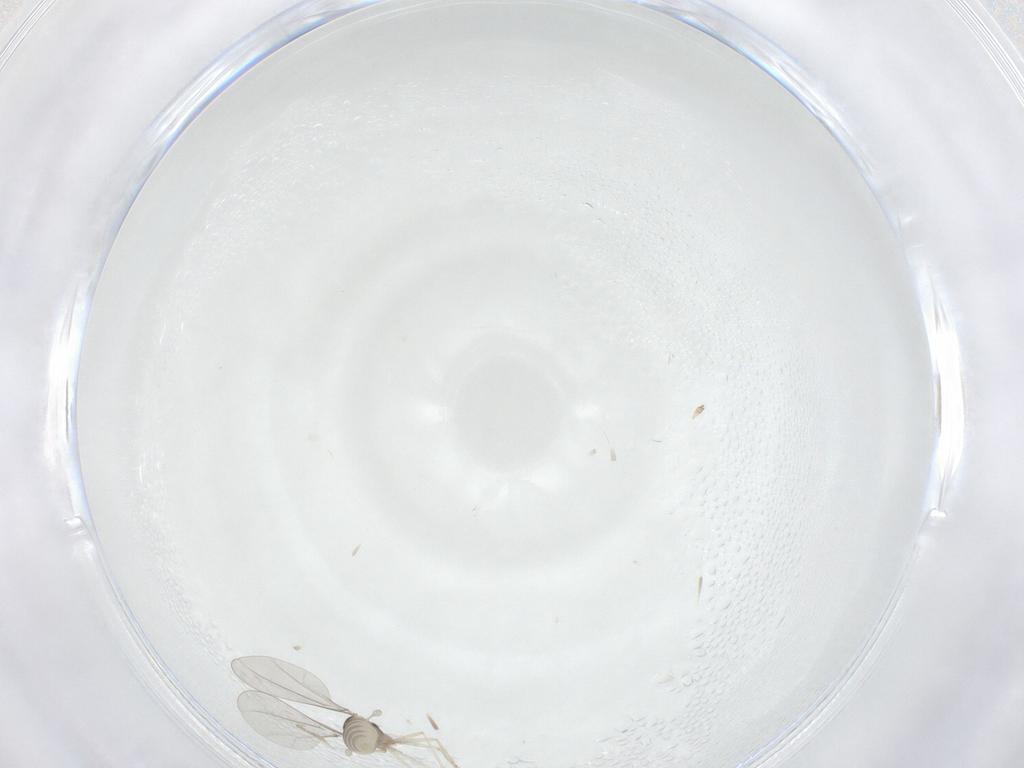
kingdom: Animalia
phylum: Arthropoda
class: Insecta
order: Diptera
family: Cecidomyiidae
